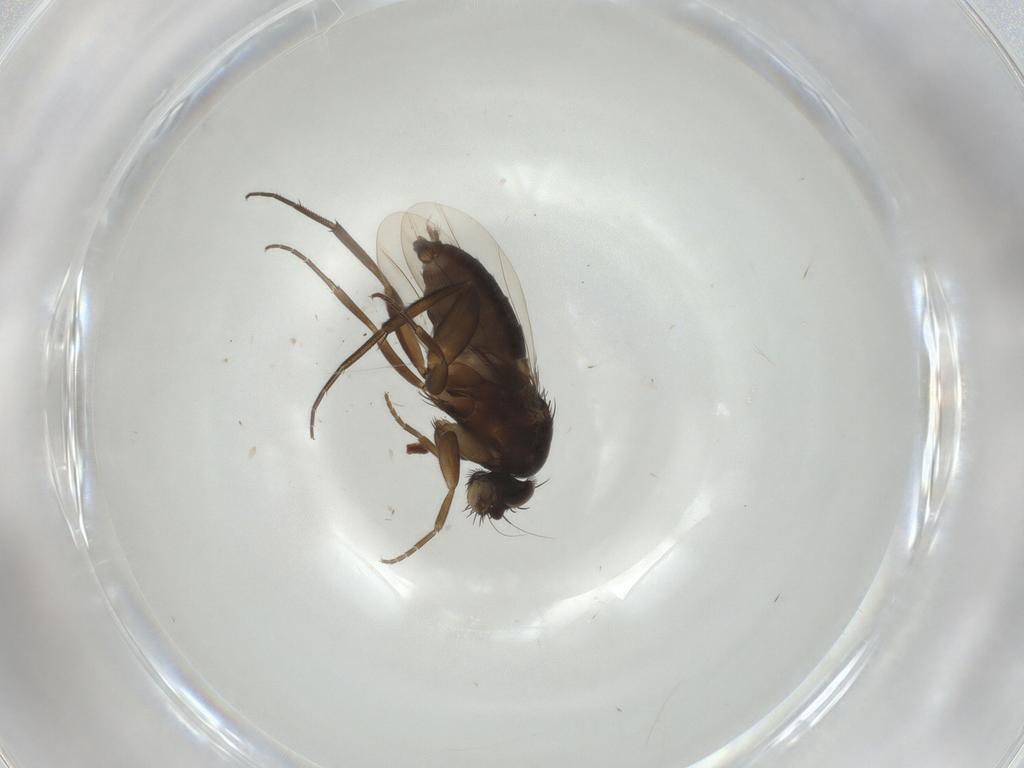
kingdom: Animalia
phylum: Arthropoda
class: Insecta
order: Diptera
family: Phoridae
